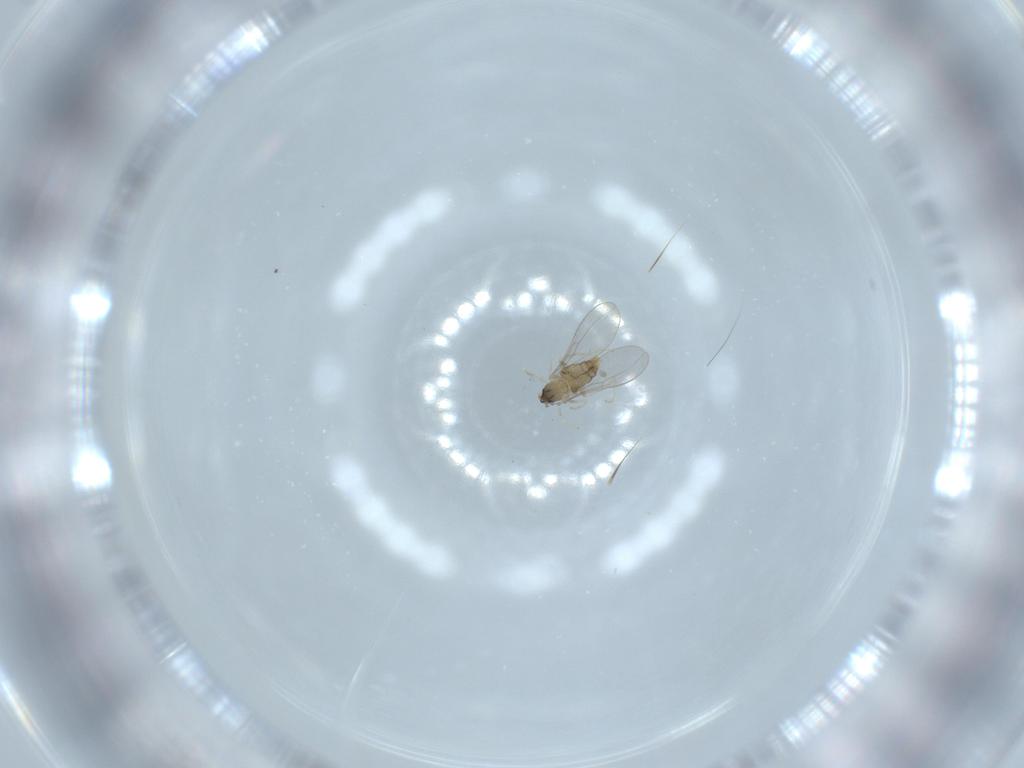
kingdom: Animalia
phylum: Arthropoda
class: Insecta
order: Diptera
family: Cecidomyiidae
